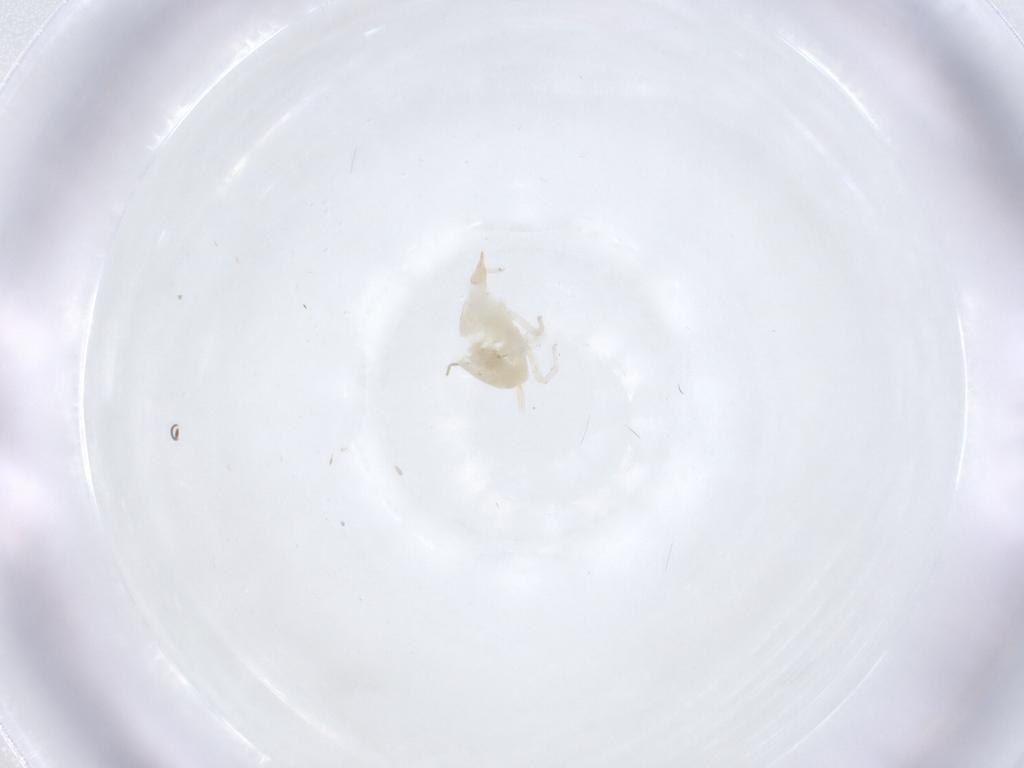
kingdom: Animalia
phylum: Arthropoda
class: Arachnida
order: Trombidiformes
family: Bdellidae
